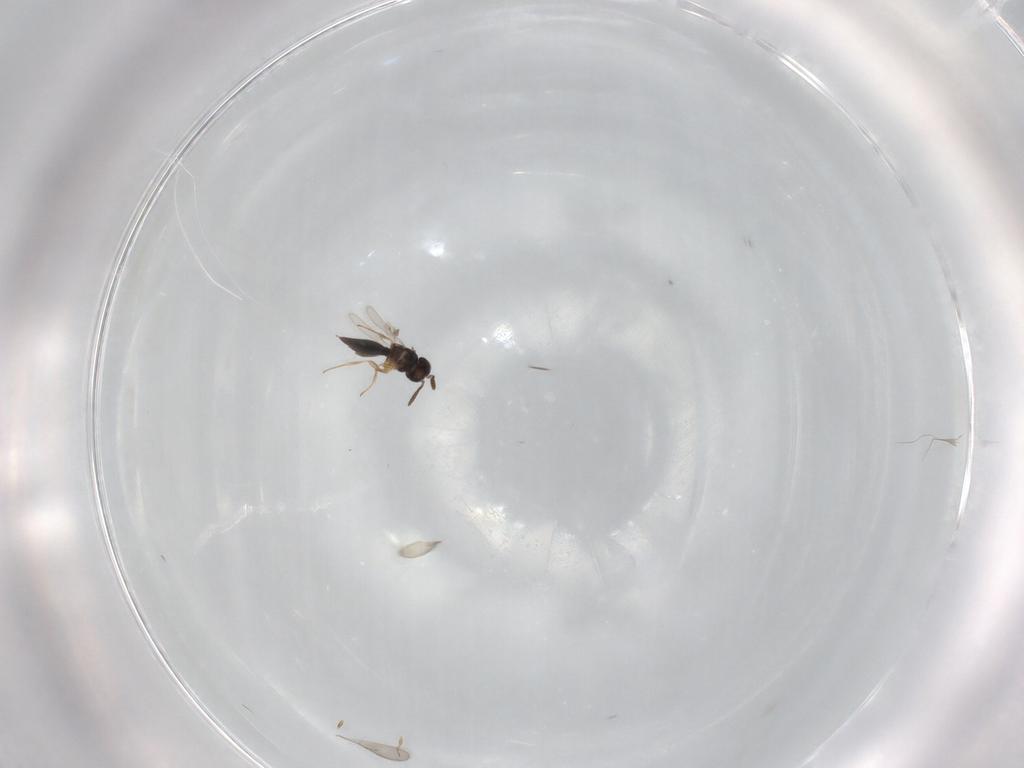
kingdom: Animalia
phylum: Arthropoda
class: Insecta
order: Hymenoptera
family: Scelionidae
